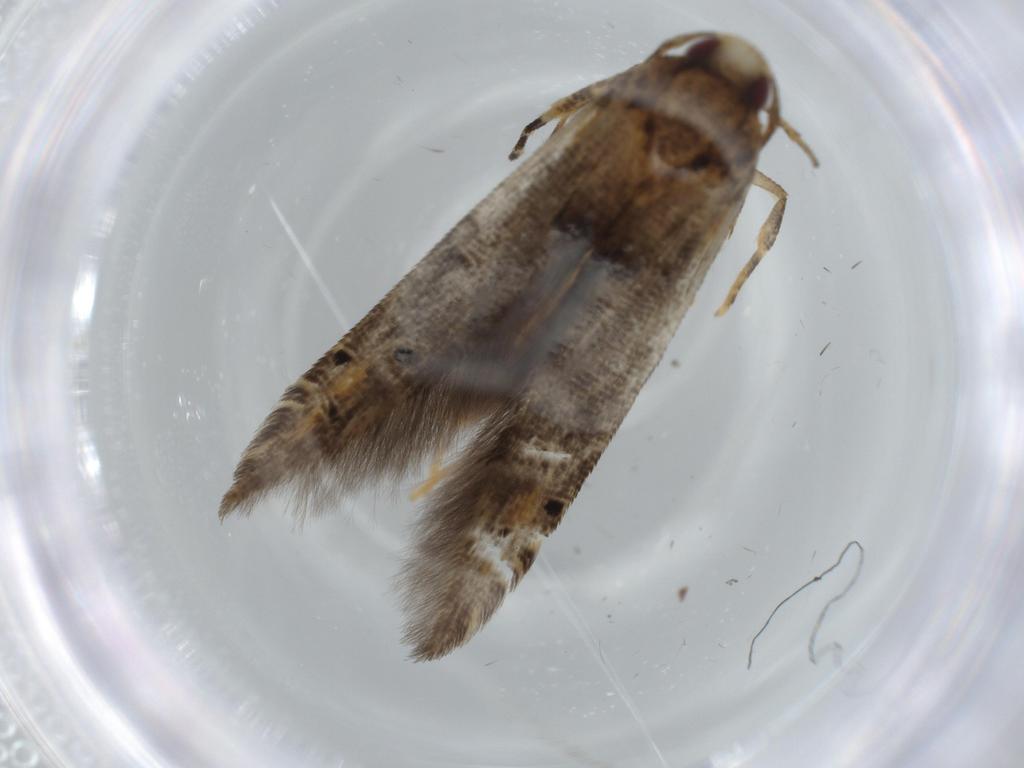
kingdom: Animalia
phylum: Arthropoda
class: Insecta
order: Lepidoptera
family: Cosmopterigidae
